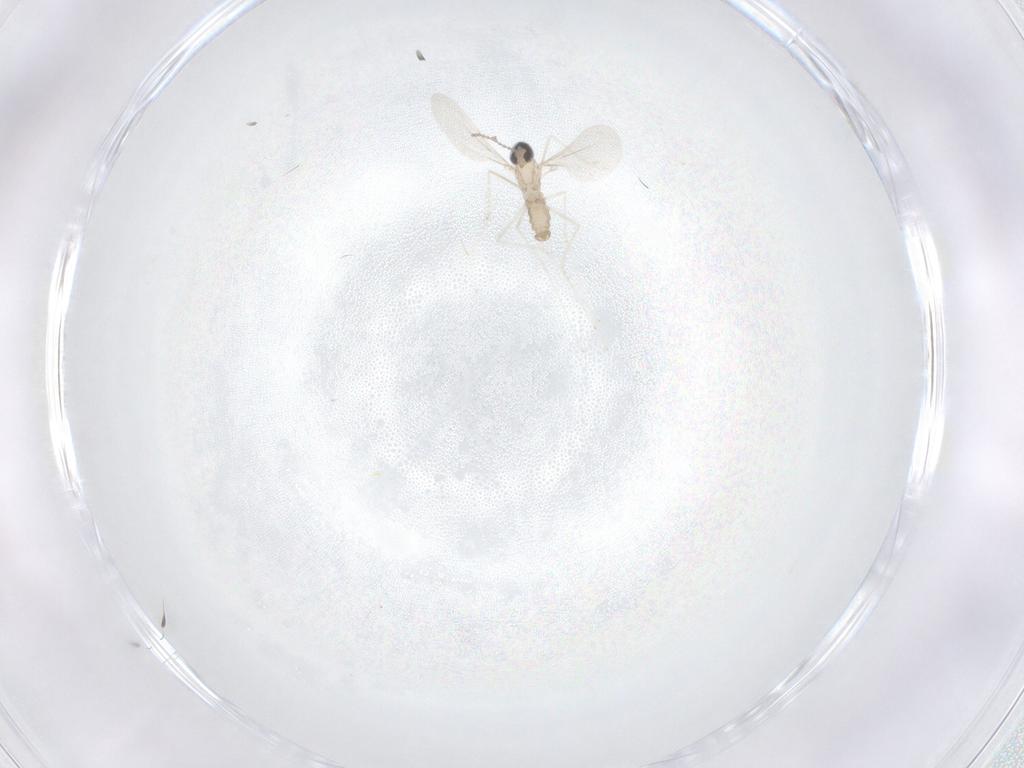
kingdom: Animalia
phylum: Arthropoda
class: Insecta
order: Diptera
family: Cecidomyiidae
